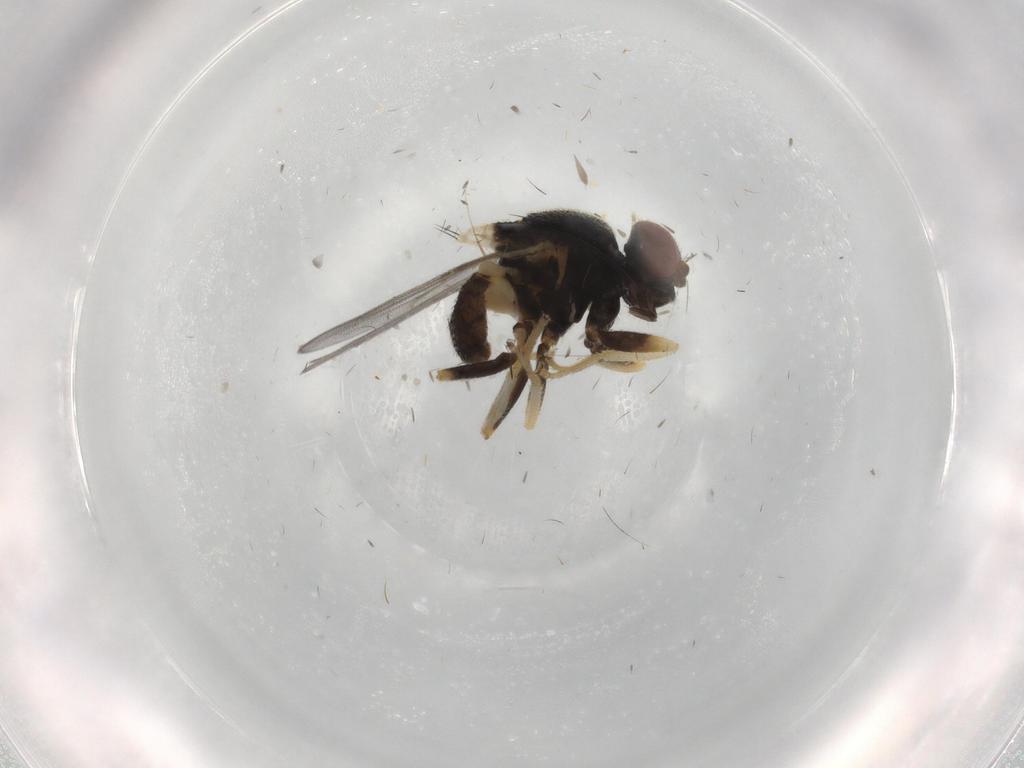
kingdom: Animalia
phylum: Arthropoda
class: Insecta
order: Diptera
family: Chloropidae
